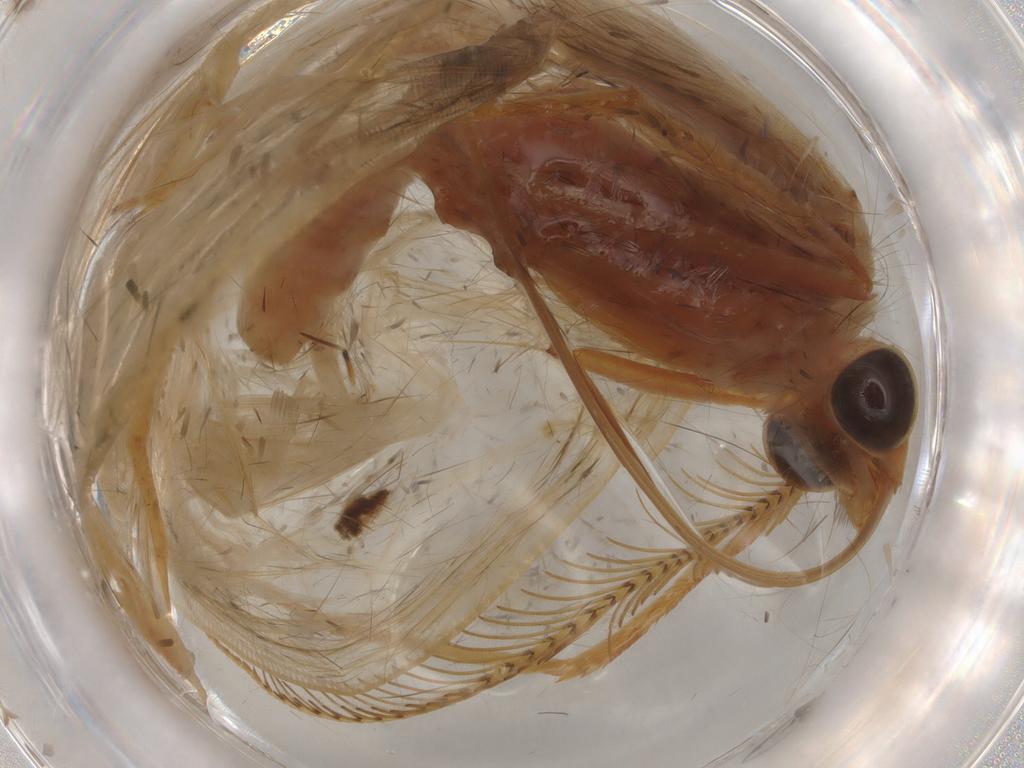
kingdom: Animalia
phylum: Arthropoda
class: Insecta
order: Lepidoptera
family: Geometridae
